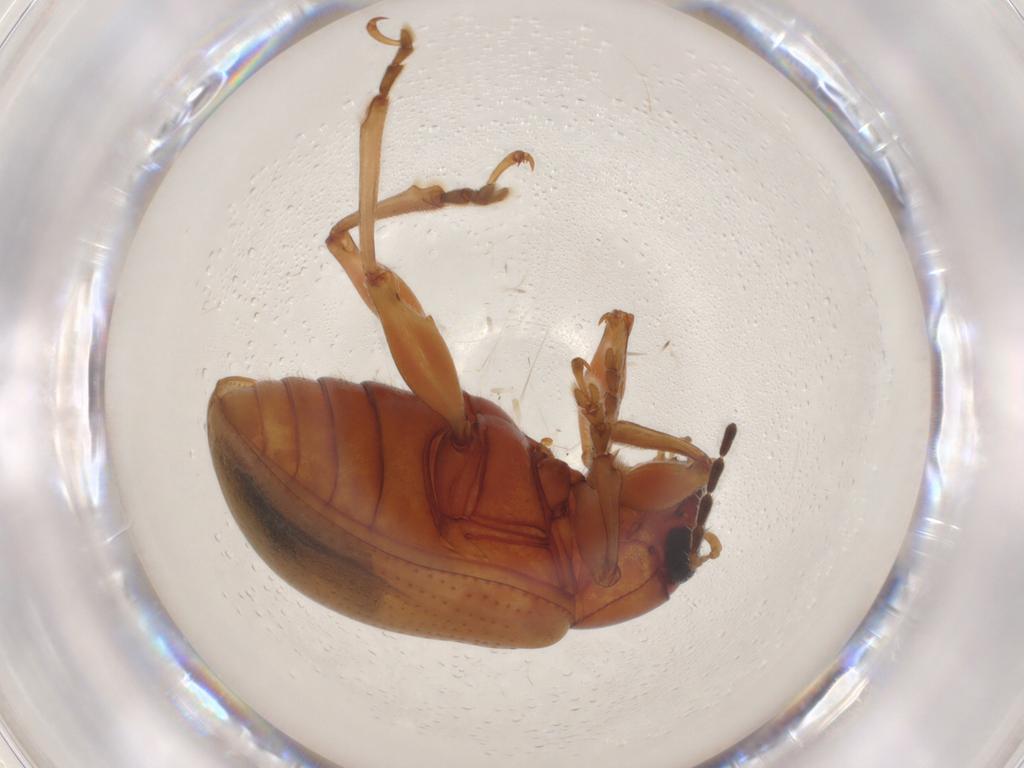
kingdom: Animalia
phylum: Arthropoda
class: Insecta
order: Coleoptera
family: Chrysomelidae
